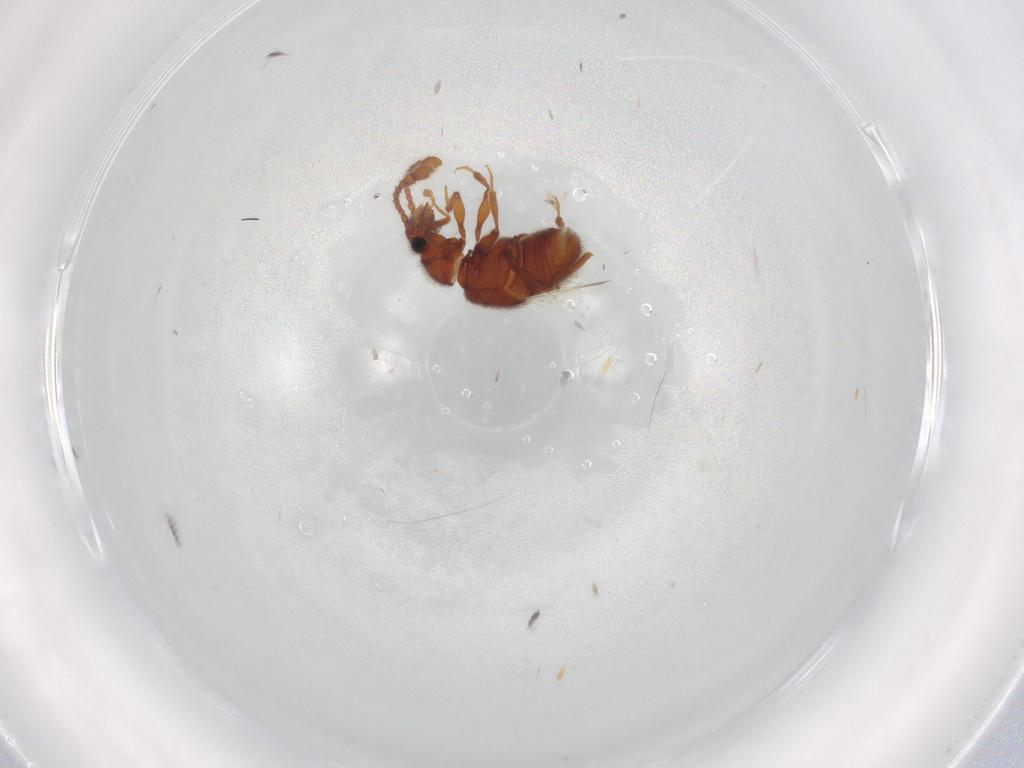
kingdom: Animalia
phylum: Arthropoda
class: Insecta
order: Coleoptera
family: Staphylinidae
